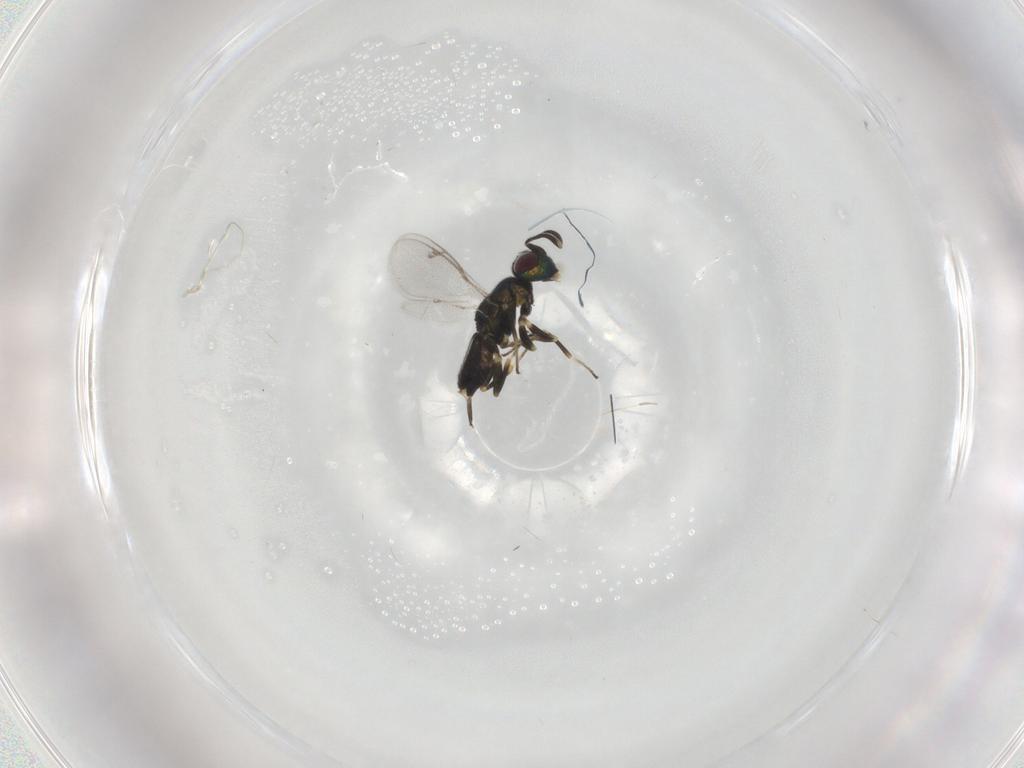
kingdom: Animalia
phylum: Arthropoda
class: Insecta
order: Hymenoptera
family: Eupelmidae
